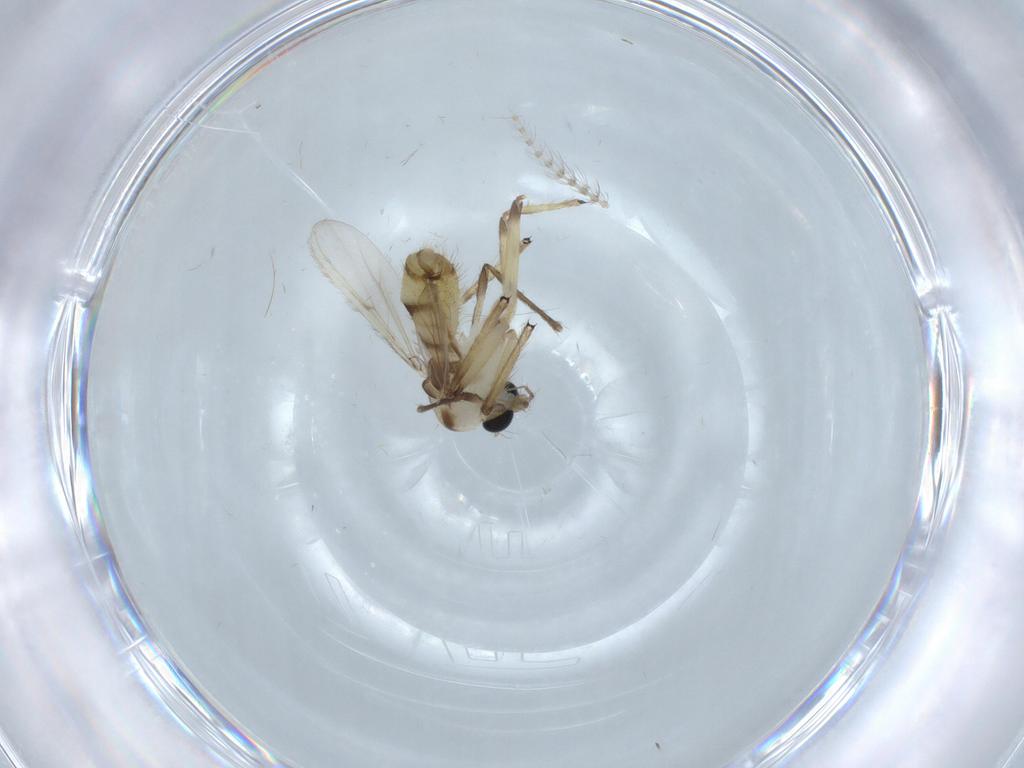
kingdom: Animalia
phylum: Arthropoda
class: Insecta
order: Diptera
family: Chironomidae
